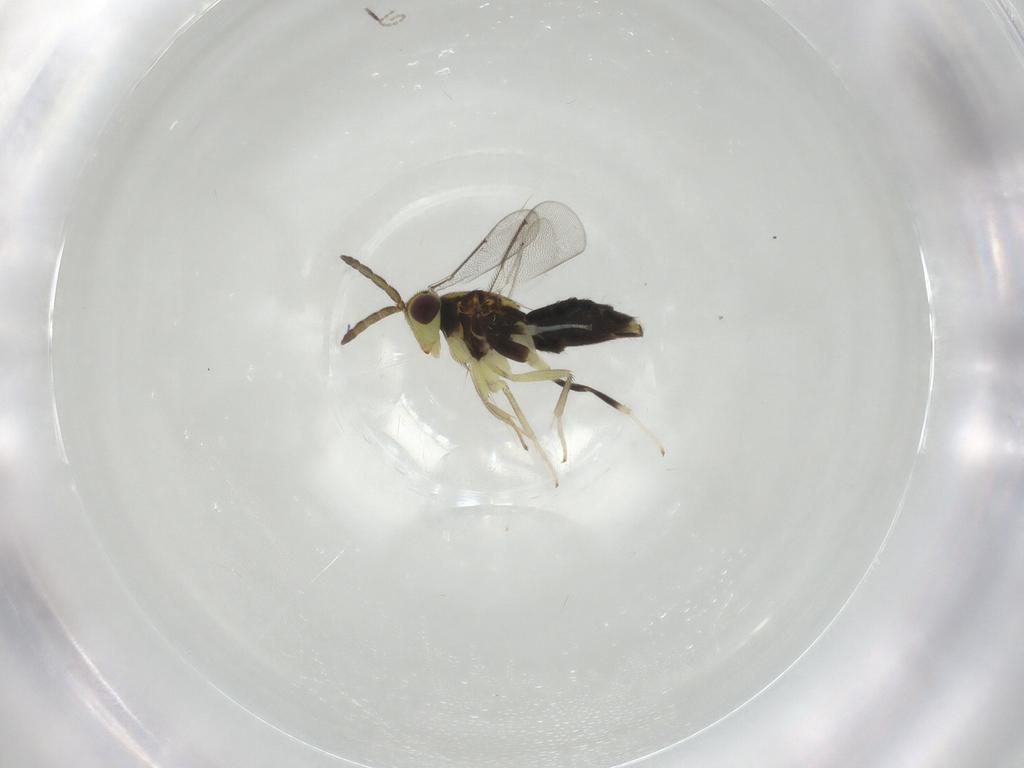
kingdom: Animalia
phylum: Arthropoda
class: Insecta
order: Hymenoptera
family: Aphelinidae
